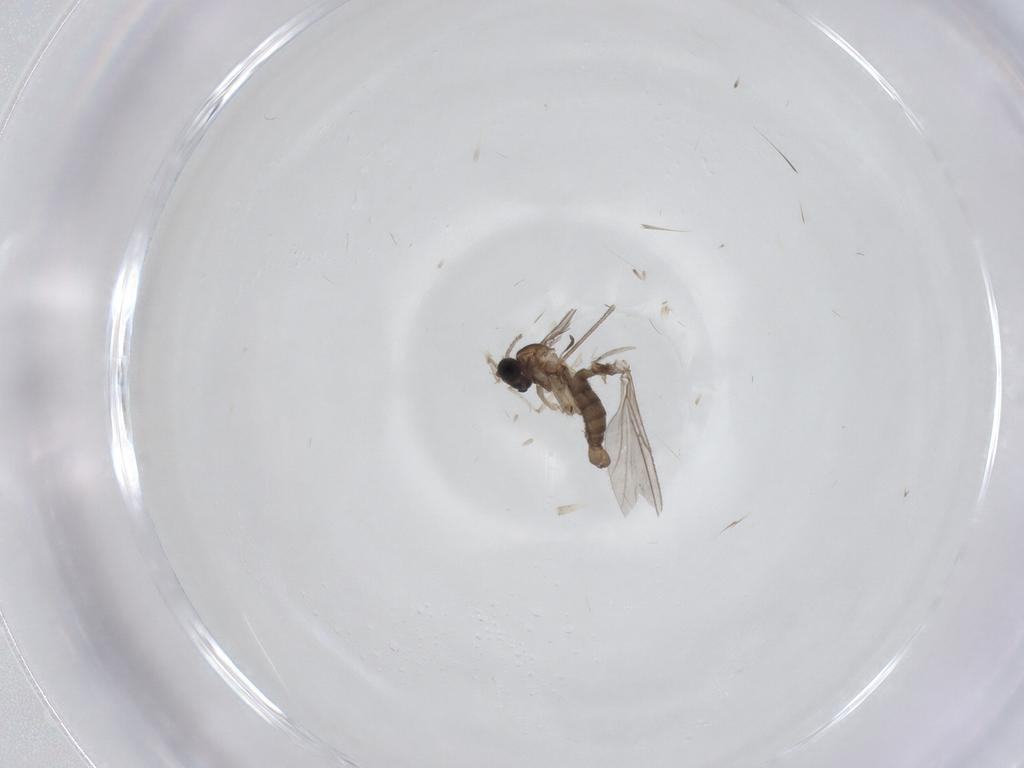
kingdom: Animalia
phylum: Arthropoda
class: Insecta
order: Diptera
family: Sciaridae
